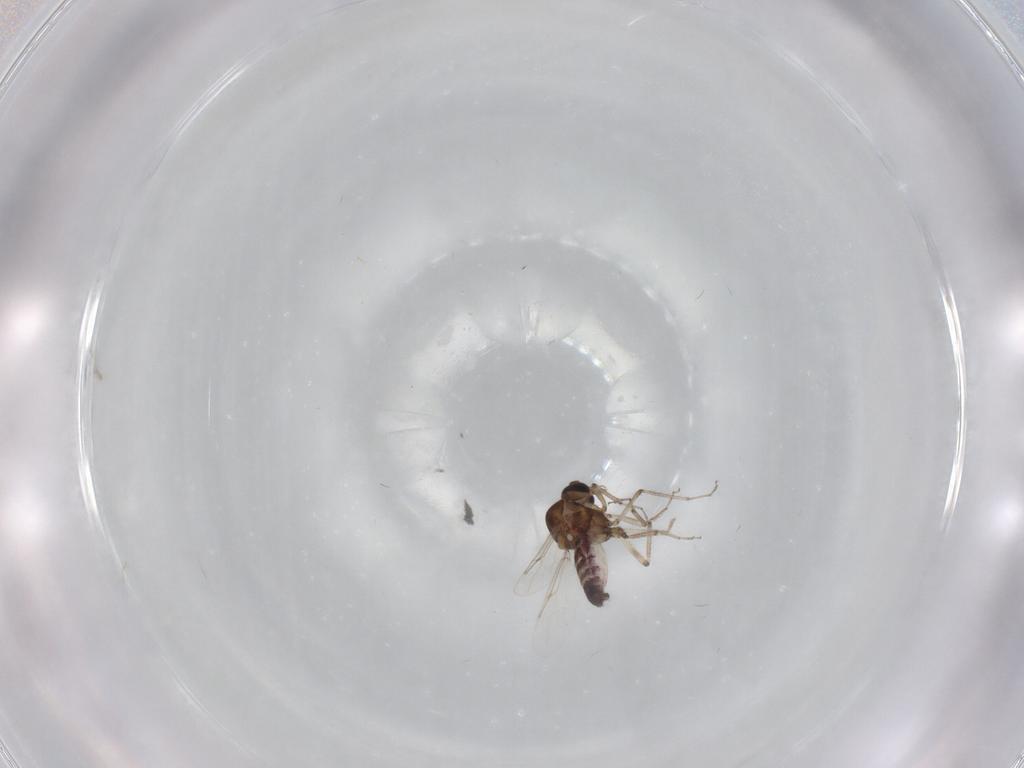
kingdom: Animalia
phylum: Arthropoda
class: Insecta
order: Diptera
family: Ceratopogonidae
